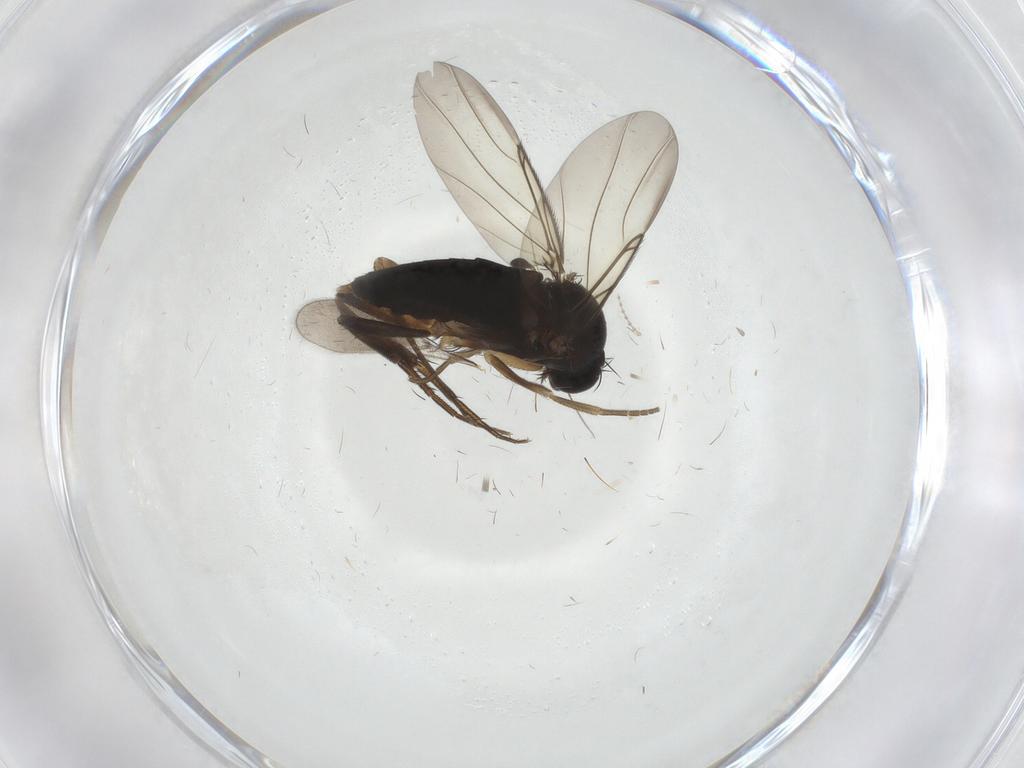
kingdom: Animalia
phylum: Arthropoda
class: Insecta
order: Diptera
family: Phoridae
